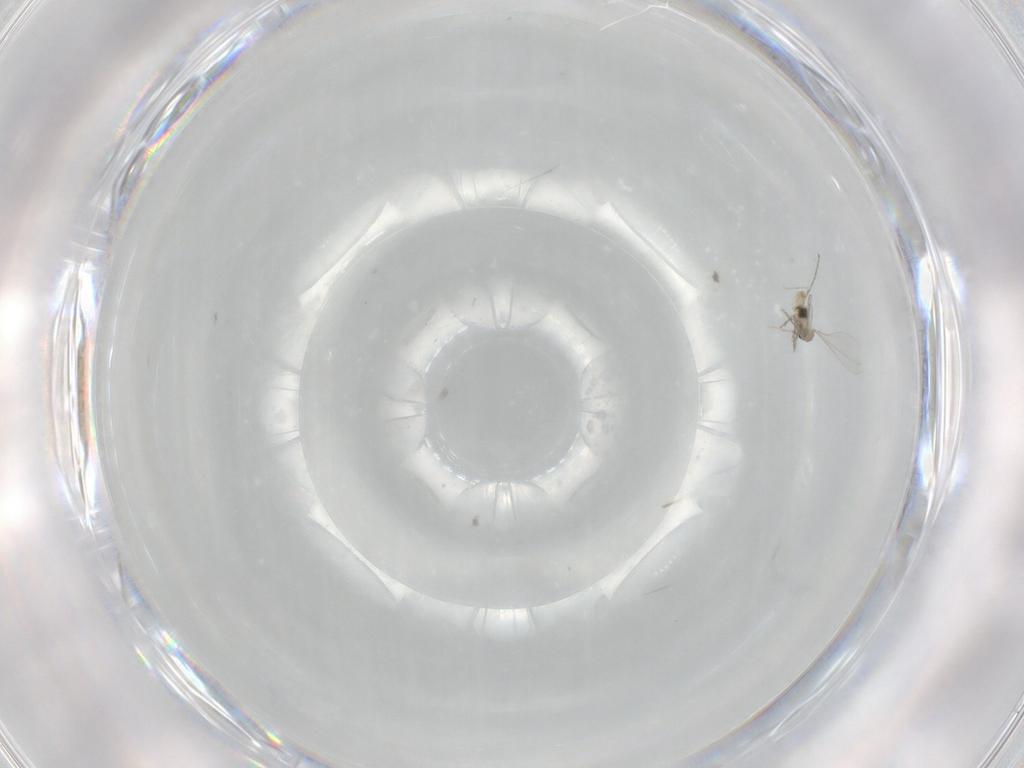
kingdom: Animalia
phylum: Arthropoda
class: Insecta
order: Diptera
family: Cecidomyiidae
